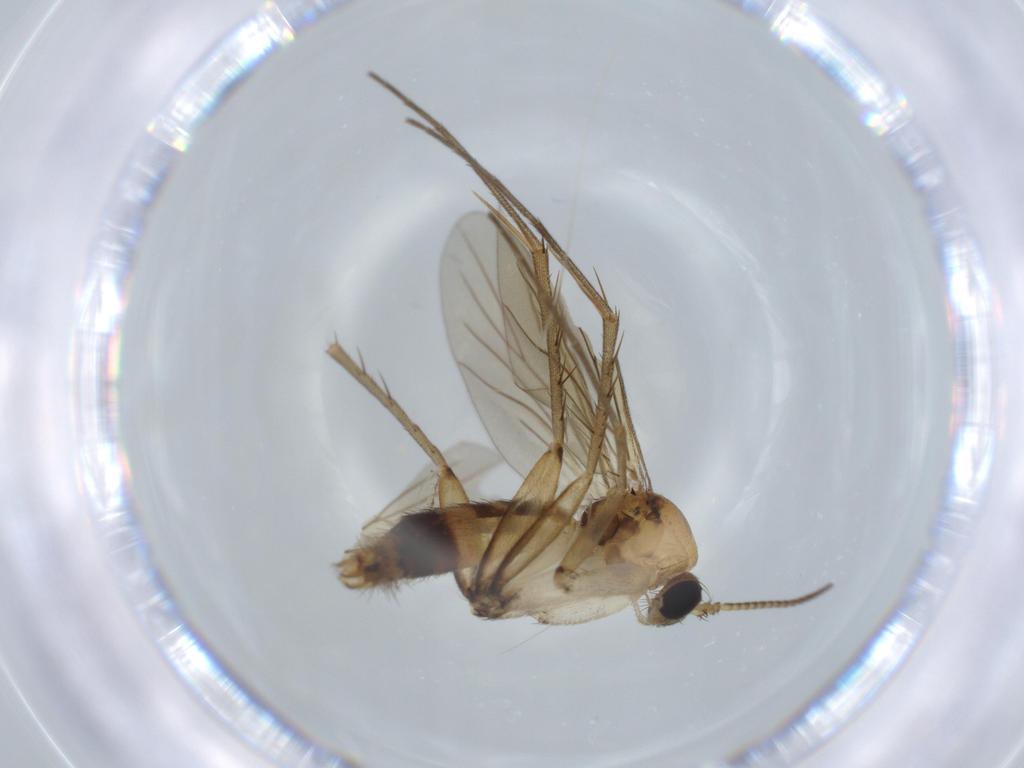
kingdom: Animalia
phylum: Arthropoda
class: Insecta
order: Diptera
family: Mycetophilidae
